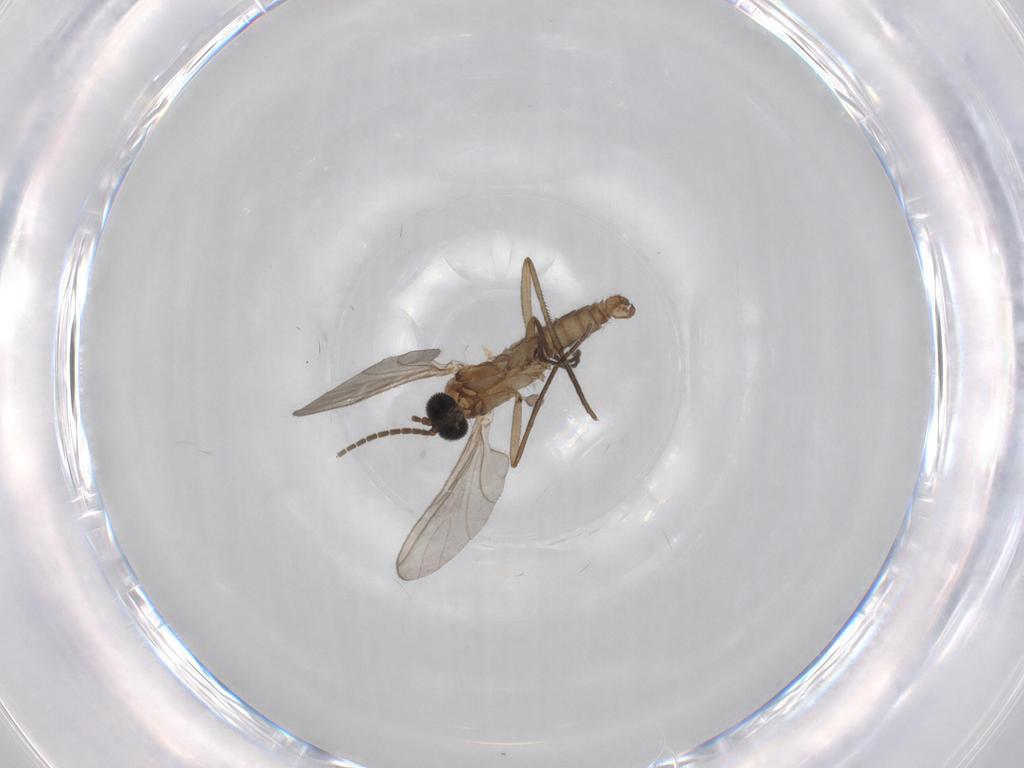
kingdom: Animalia
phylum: Arthropoda
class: Insecta
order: Diptera
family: Sciaridae
